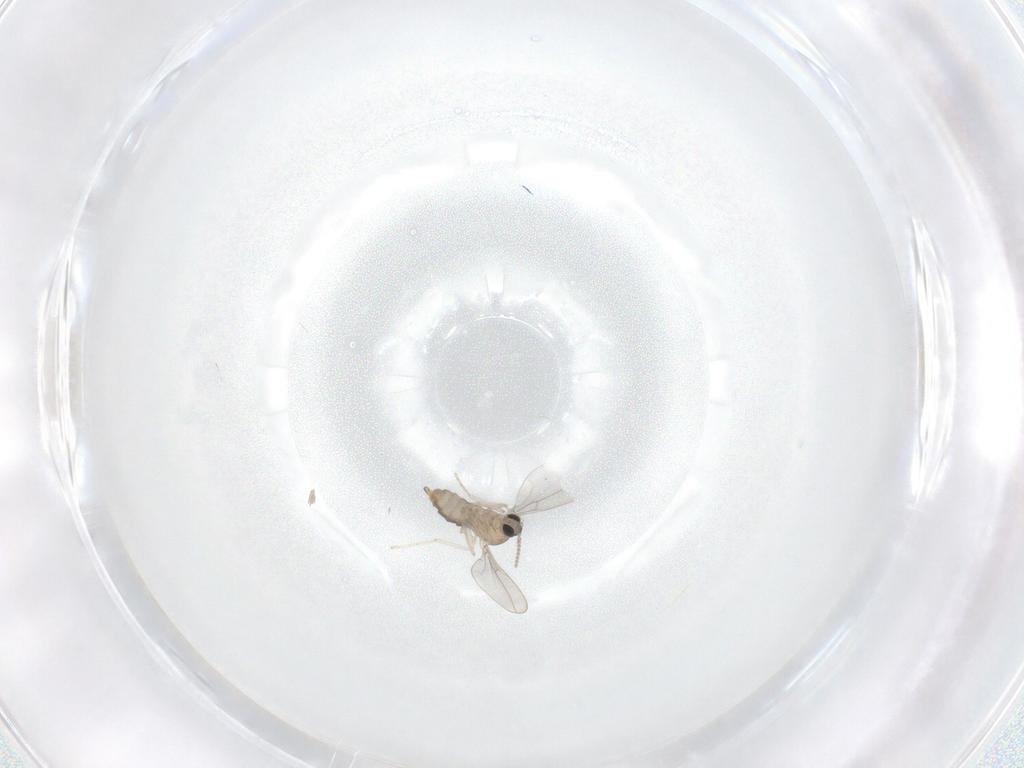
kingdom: Animalia
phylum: Arthropoda
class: Insecta
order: Diptera
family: Cecidomyiidae
